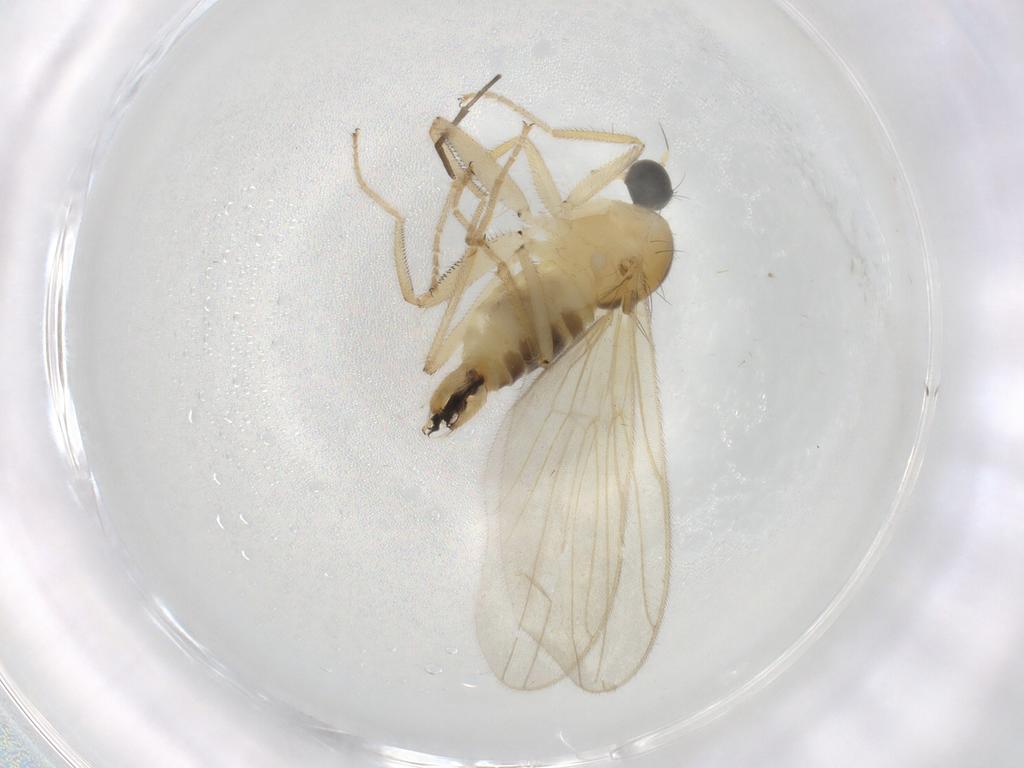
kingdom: Animalia
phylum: Arthropoda
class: Insecta
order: Diptera
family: Hybotidae
